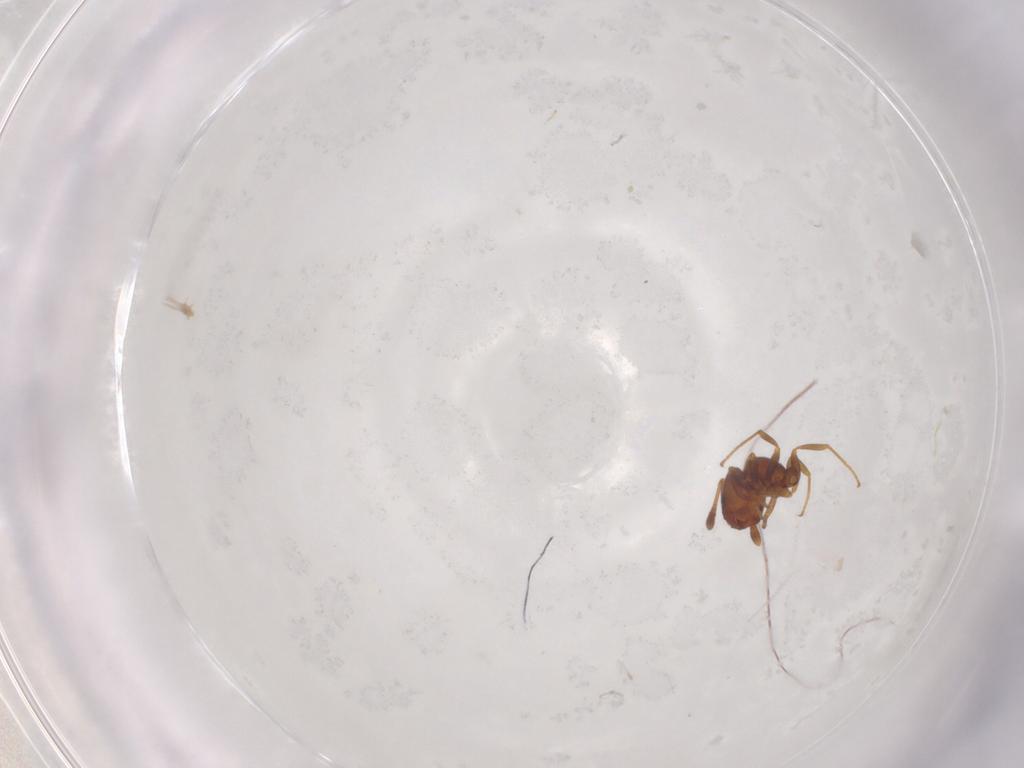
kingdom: Animalia
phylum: Arthropoda
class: Insecta
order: Hymenoptera
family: Formicidae
